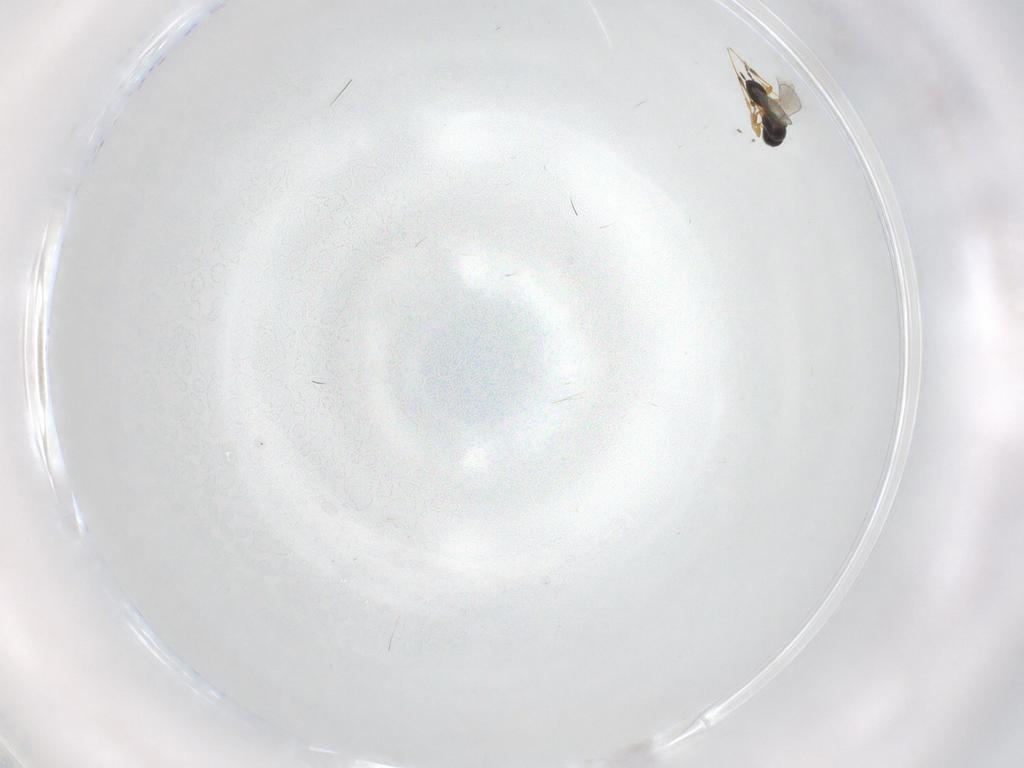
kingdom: Animalia
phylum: Arthropoda
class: Insecta
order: Hymenoptera
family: Platygastridae
